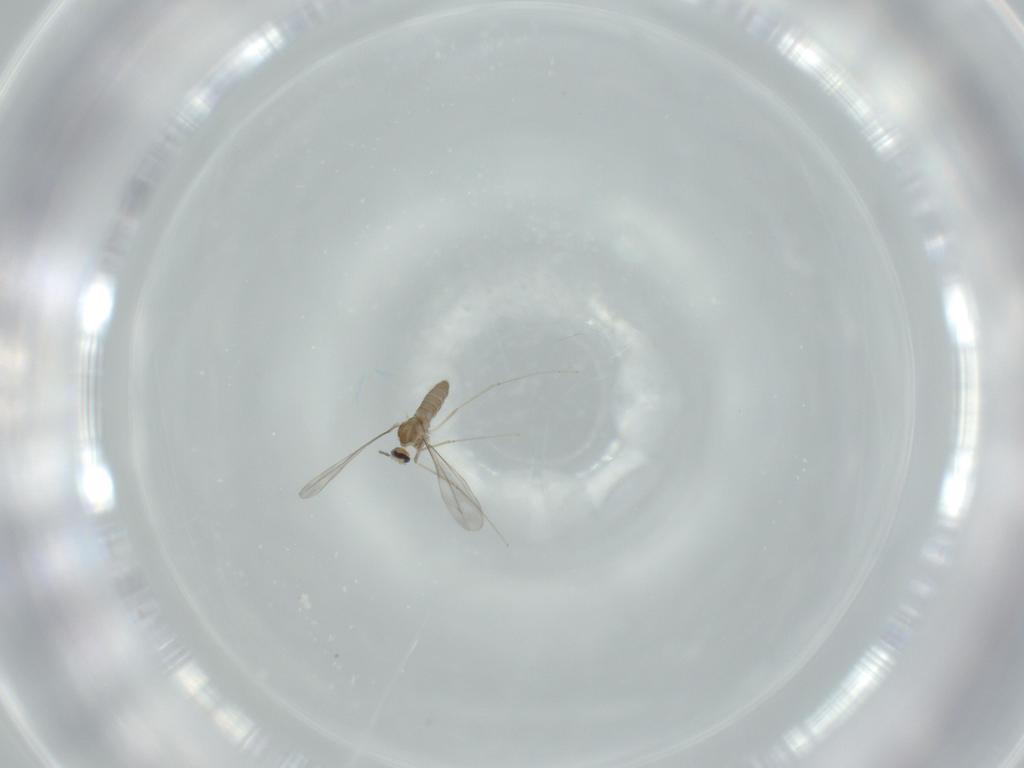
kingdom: Animalia
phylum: Arthropoda
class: Insecta
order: Diptera
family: Cecidomyiidae
